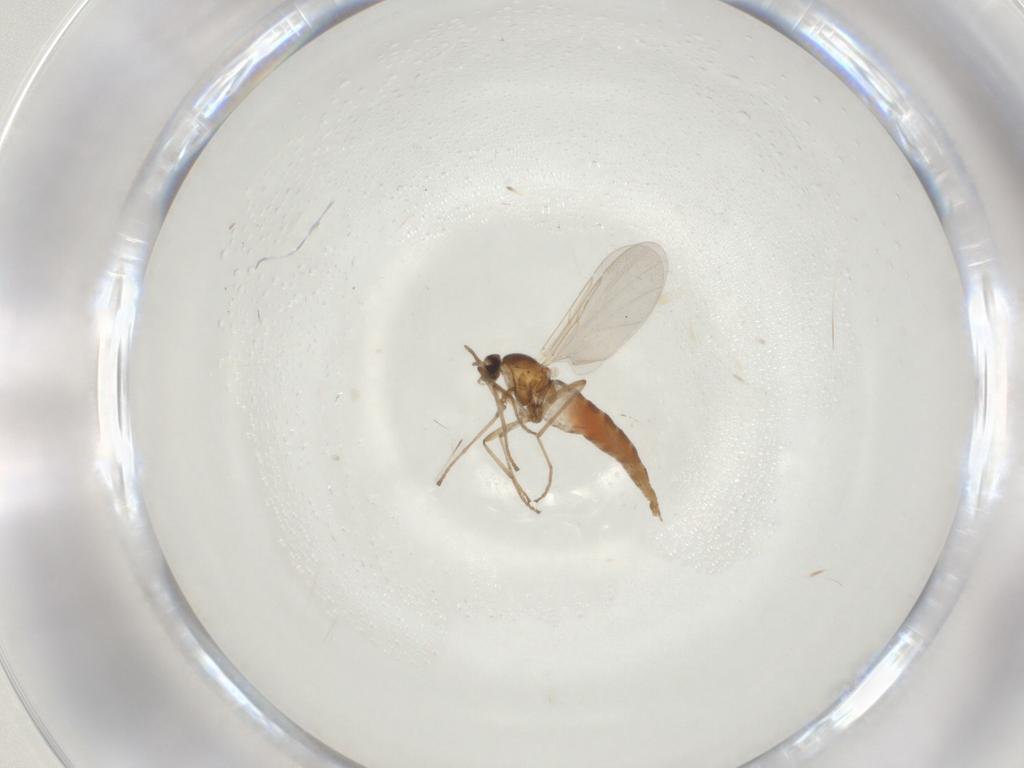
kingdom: Animalia
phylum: Arthropoda
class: Insecta
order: Diptera
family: Cecidomyiidae
